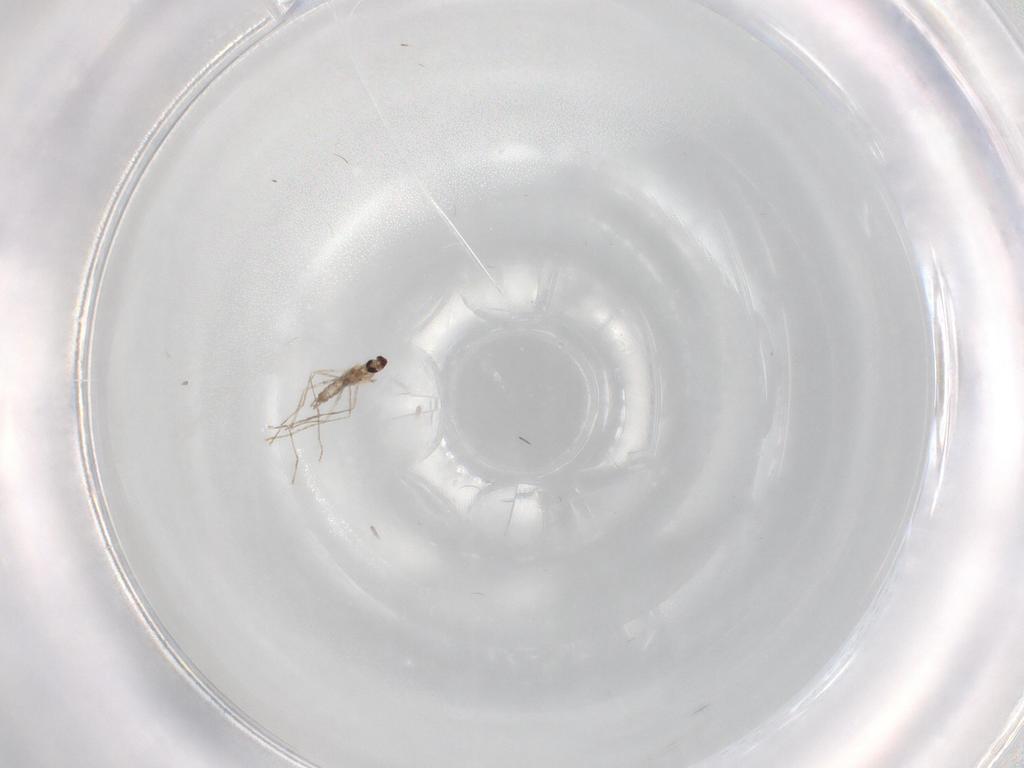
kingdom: Animalia
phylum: Arthropoda
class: Insecta
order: Diptera
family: Cecidomyiidae
